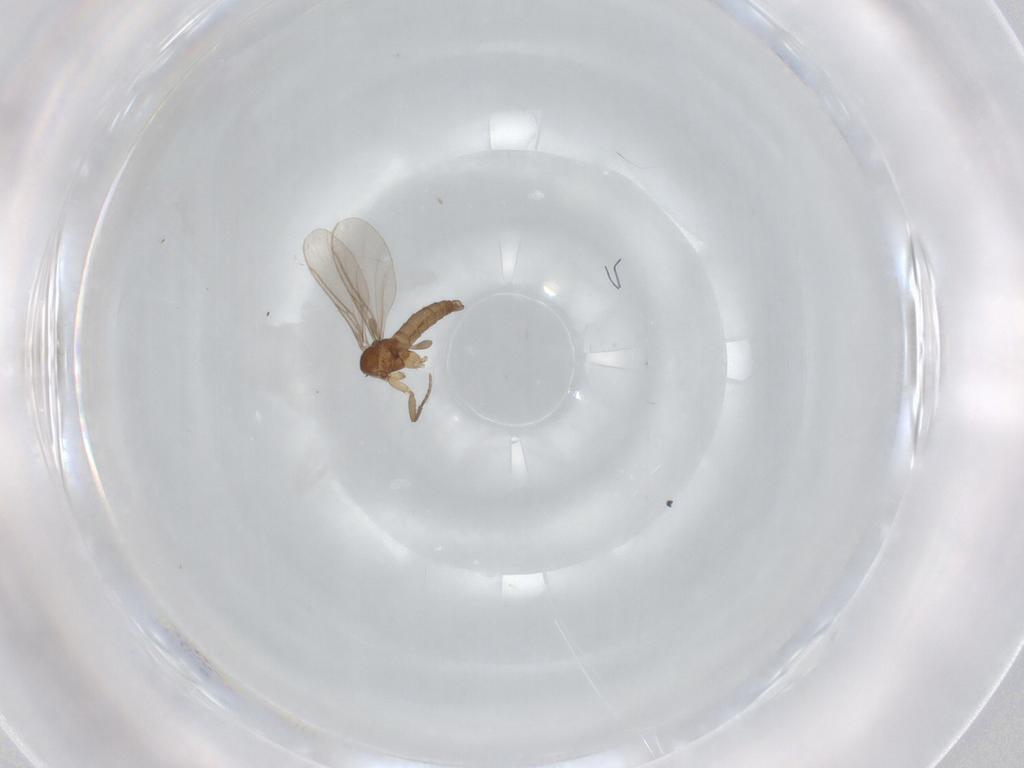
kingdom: Animalia
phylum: Arthropoda
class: Insecta
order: Diptera
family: Sciaridae
